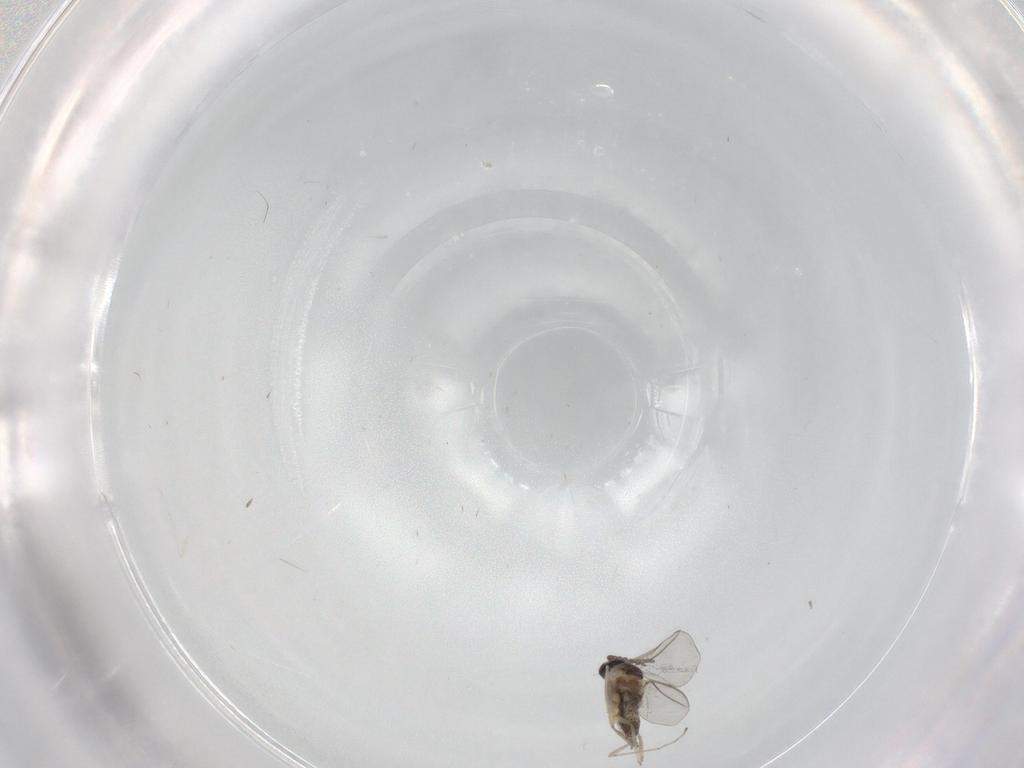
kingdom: Animalia
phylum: Arthropoda
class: Insecta
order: Diptera
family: Cecidomyiidae
